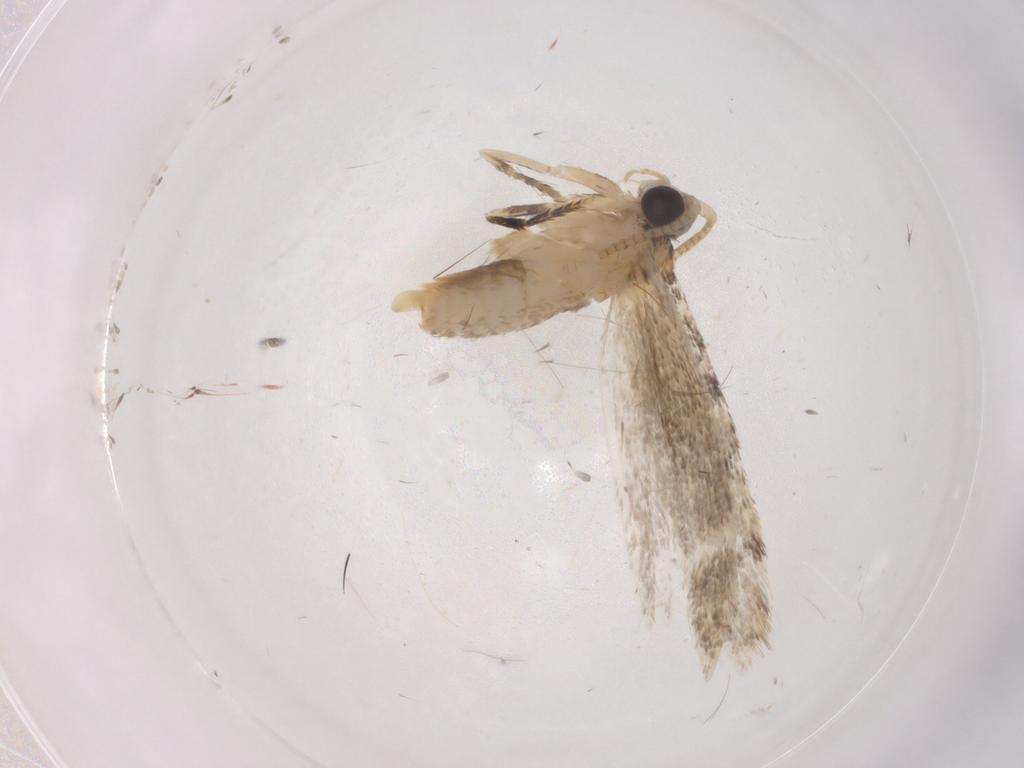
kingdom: Animalia
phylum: Arthropoda
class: Insecta
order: Lepidoptera
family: Tineidae
